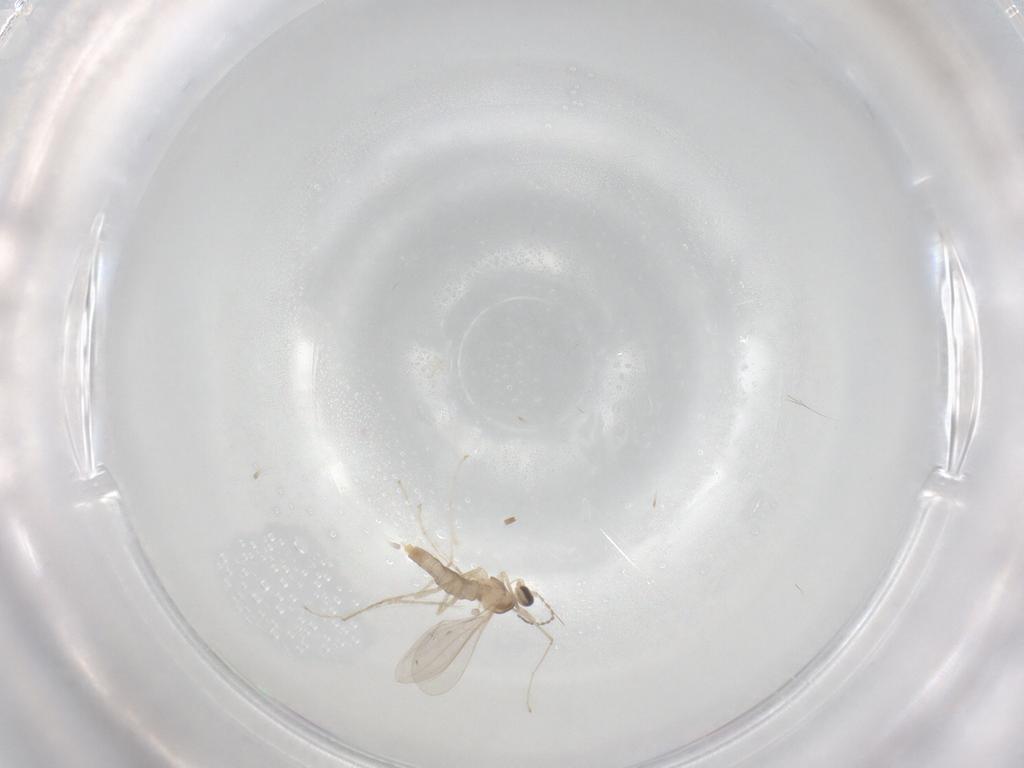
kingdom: Animalia
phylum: Arthropoda
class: Insecta
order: Diptera
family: Cecidomyiidae
